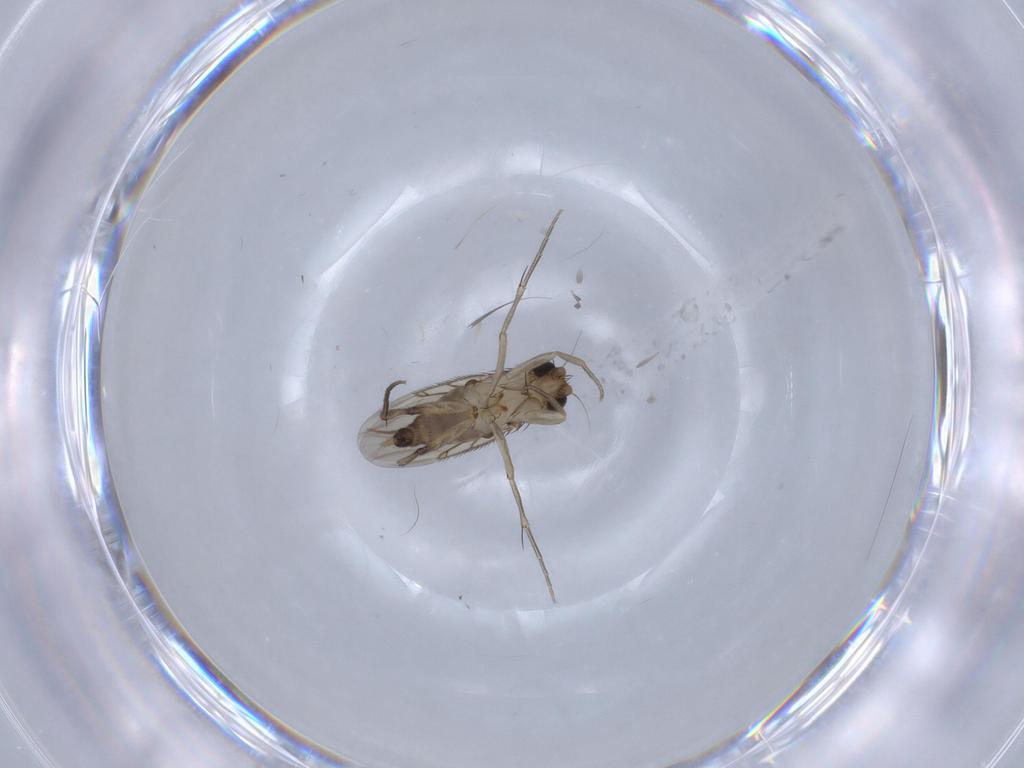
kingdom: Animalia
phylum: Arthropoda
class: Insecta
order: Diptera
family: Phoridae
